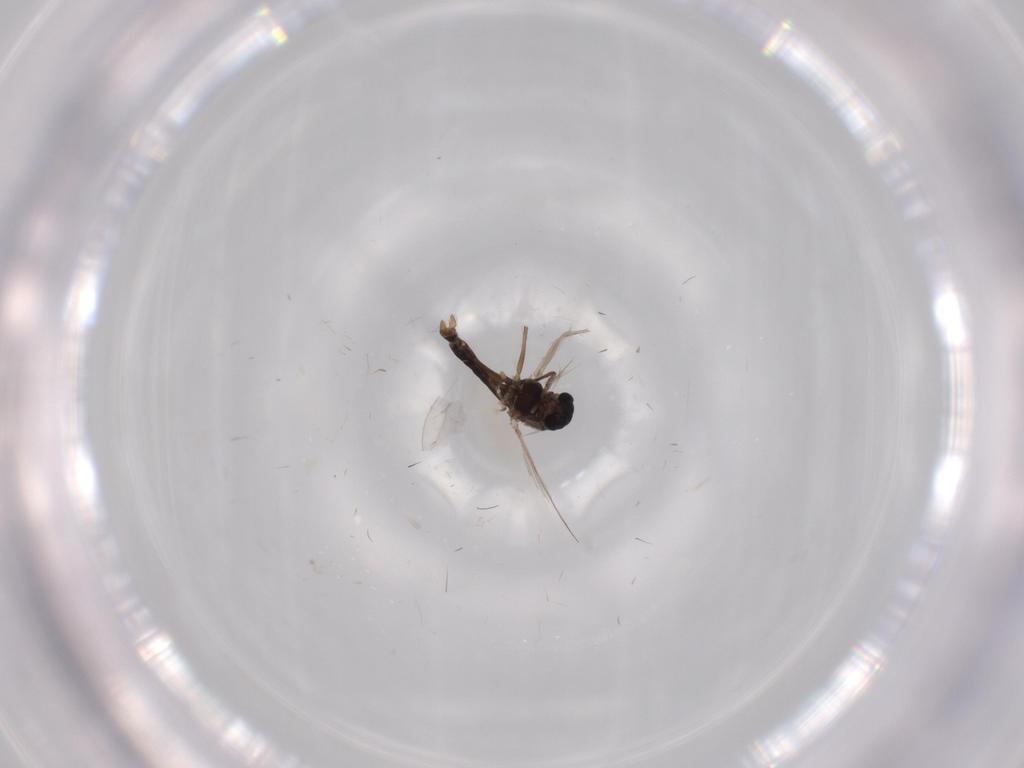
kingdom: Animalia
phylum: Arthropoda
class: Insecta
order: Diptera
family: Chironomidae
